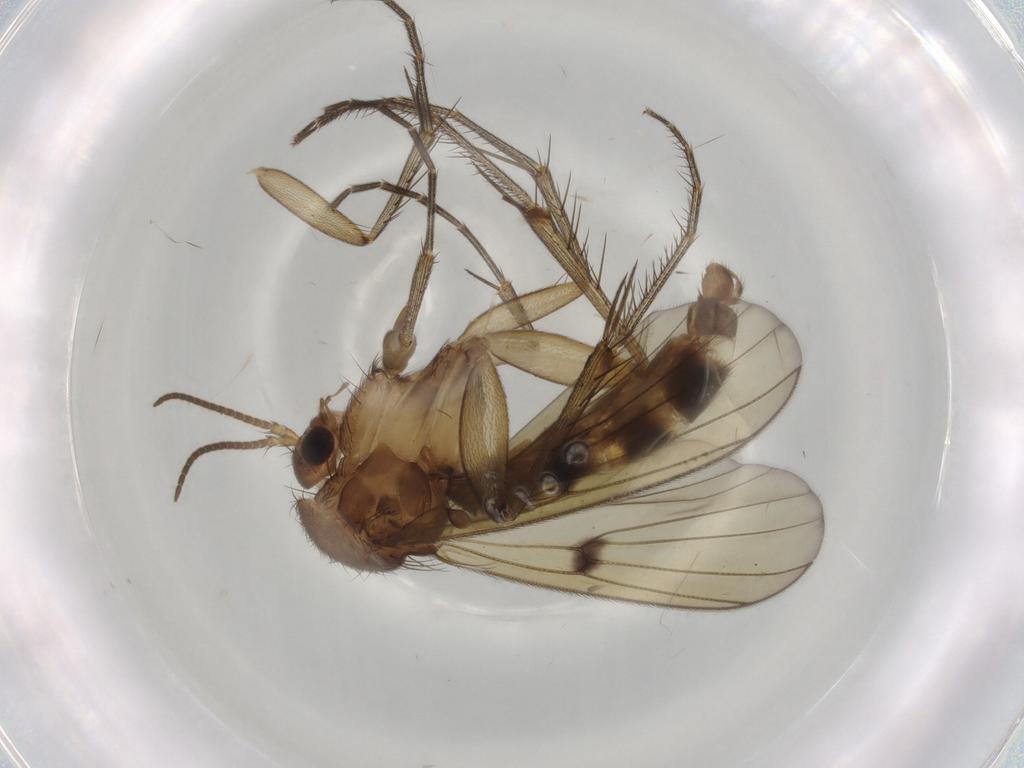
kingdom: Animalia
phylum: Arthropoda
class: Insecta
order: Diptera
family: Mycetophilidae
